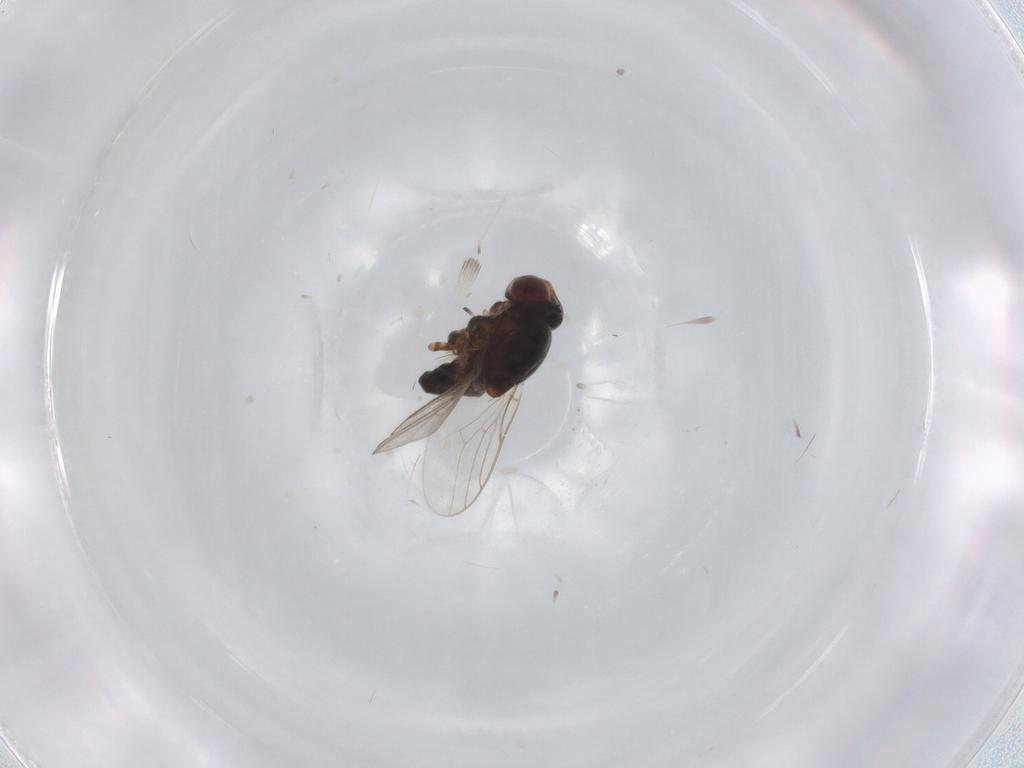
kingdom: Animalia
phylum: Arthropoda
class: Insecta
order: Diptera
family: Chloropidae
